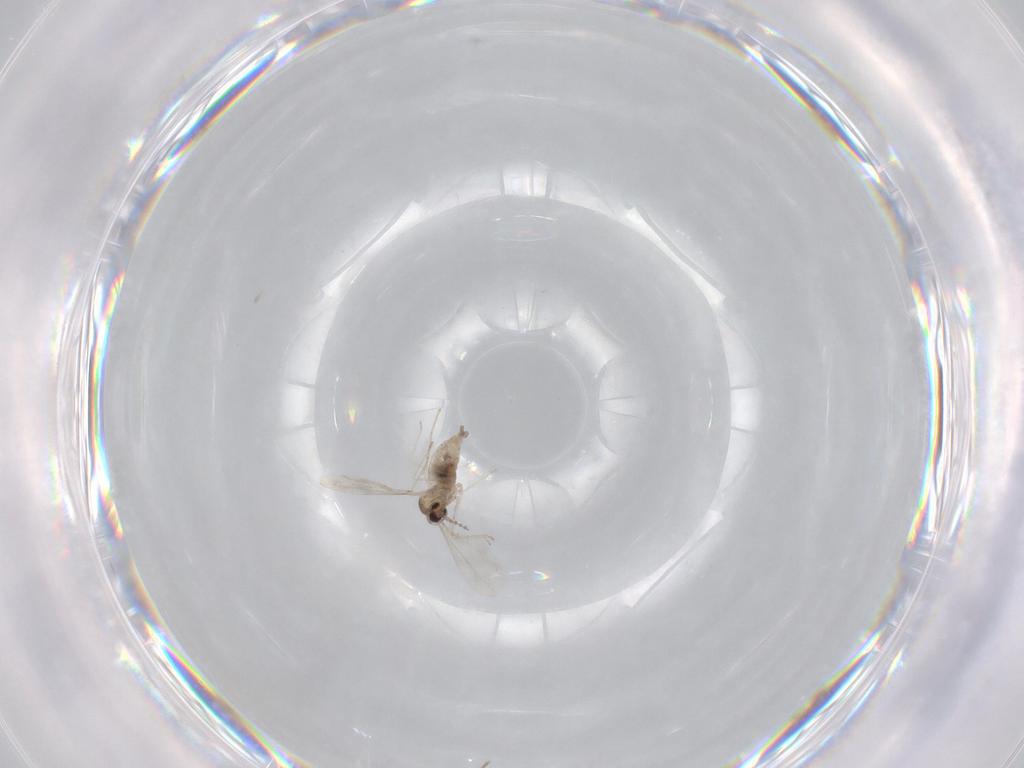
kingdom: Animalia
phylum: Arthropoda
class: Insecta
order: Diptera
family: Cecidomyiidae
